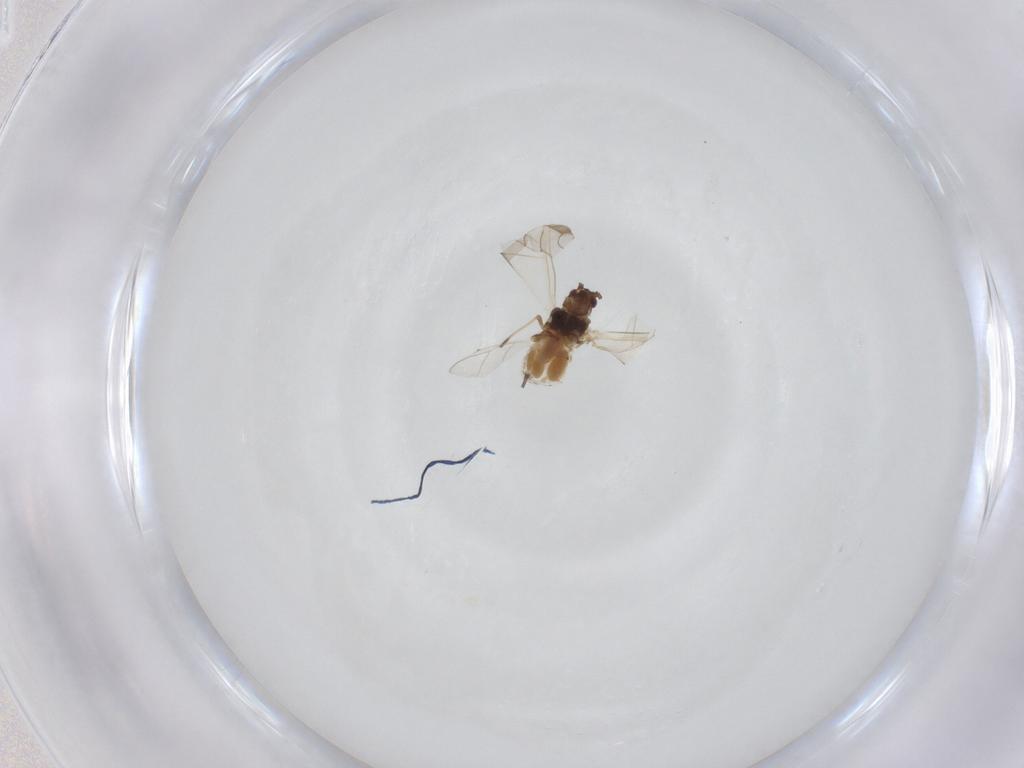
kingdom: Animalia
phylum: Arthropoda
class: Insecta
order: Hemiptera
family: Aphididae
